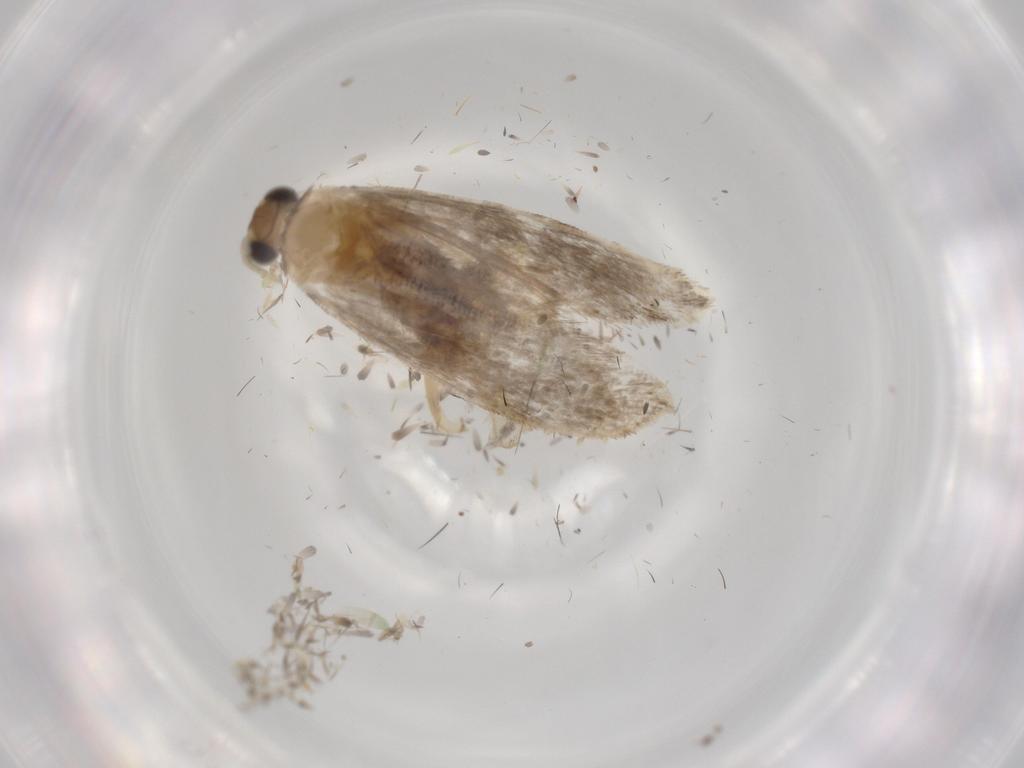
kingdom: Animalia
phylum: Arthropoda
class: Insecta
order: Lepidoptera
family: Tineidae
